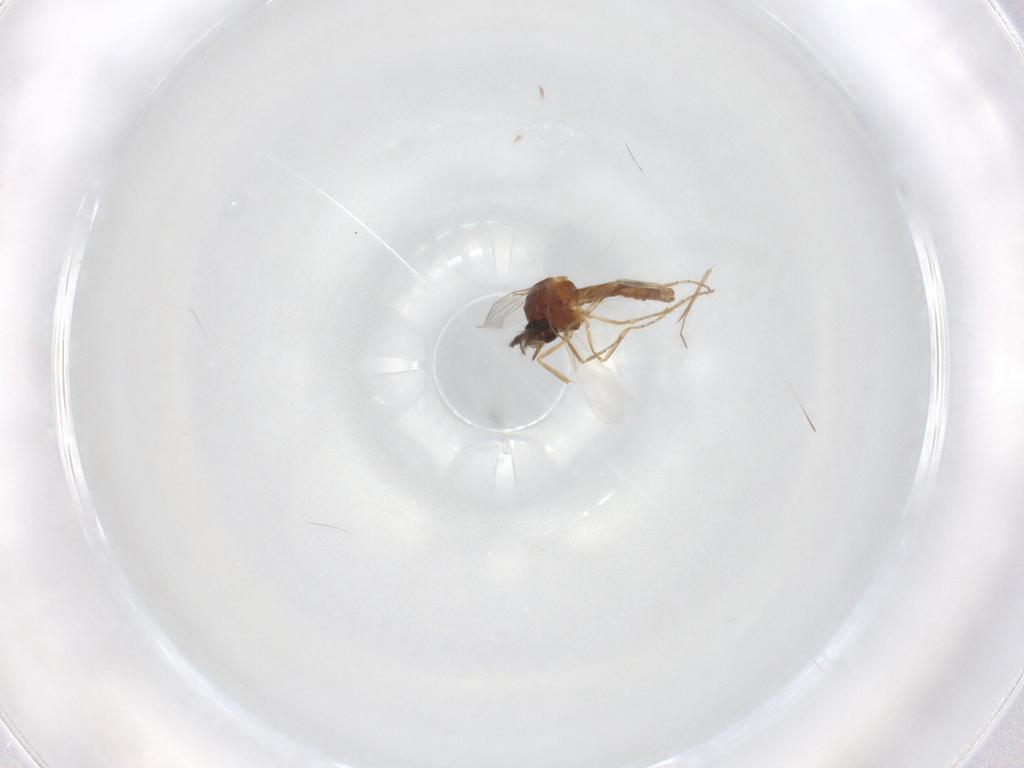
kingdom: Animalia
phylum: Arthropoda
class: Insecta
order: Diptera
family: Ceratopogonidae
